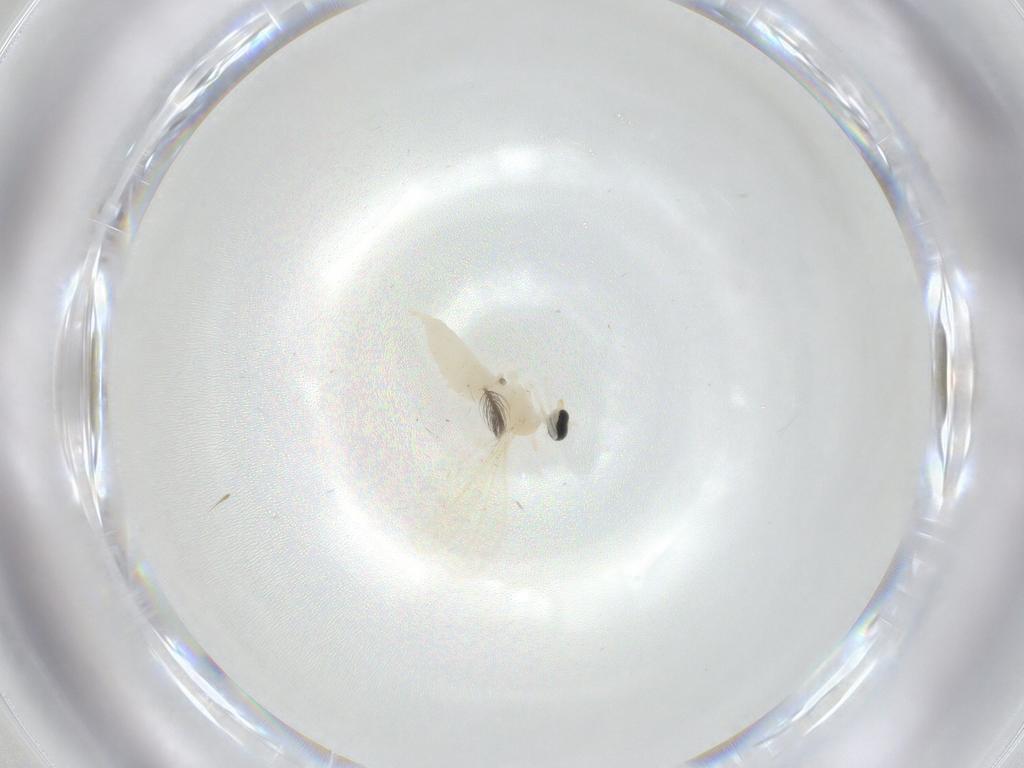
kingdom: Animalia
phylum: Arthropoda
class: Insecta
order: Diptera
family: Cecidomyiidae
